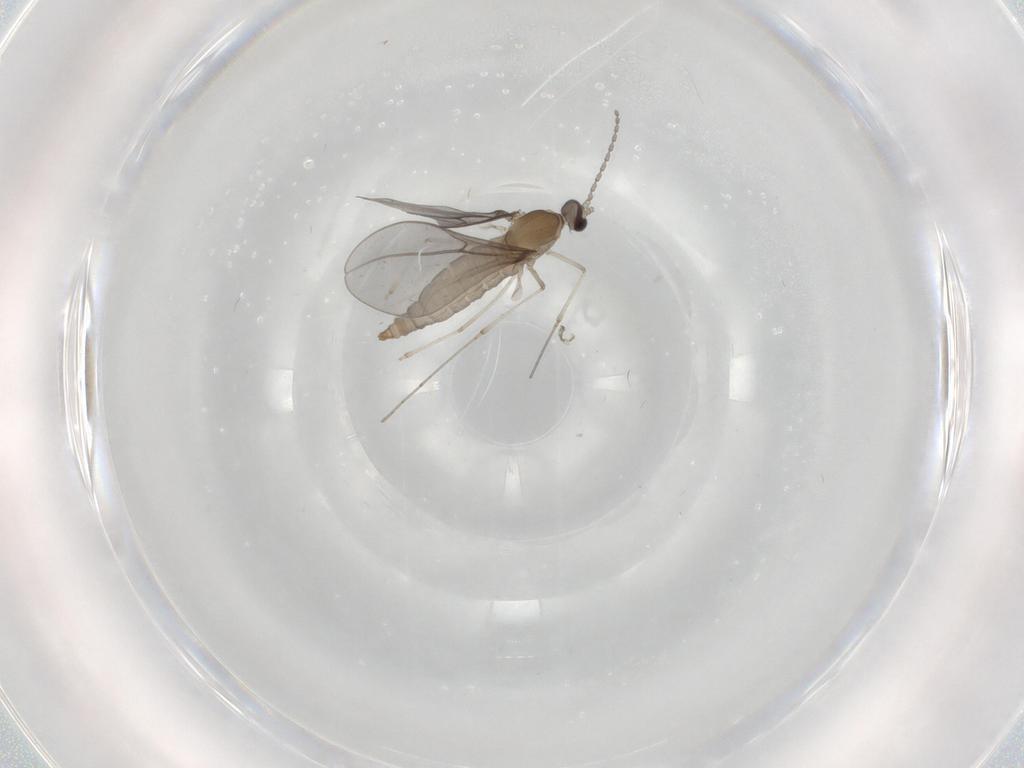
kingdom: Animalia
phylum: Arthropoda
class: Insecta
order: Diptera
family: Cecidomyiidae
